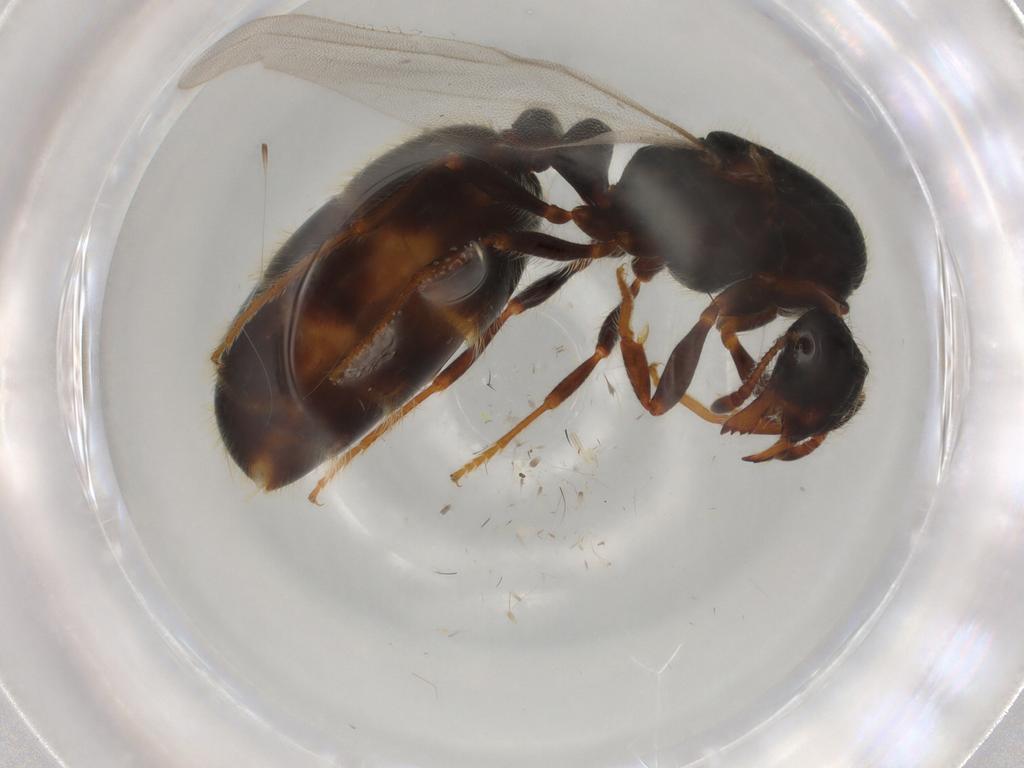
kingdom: Animalia
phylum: Arthropoda
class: Insecta
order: Hymenoptera
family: Formicidae
